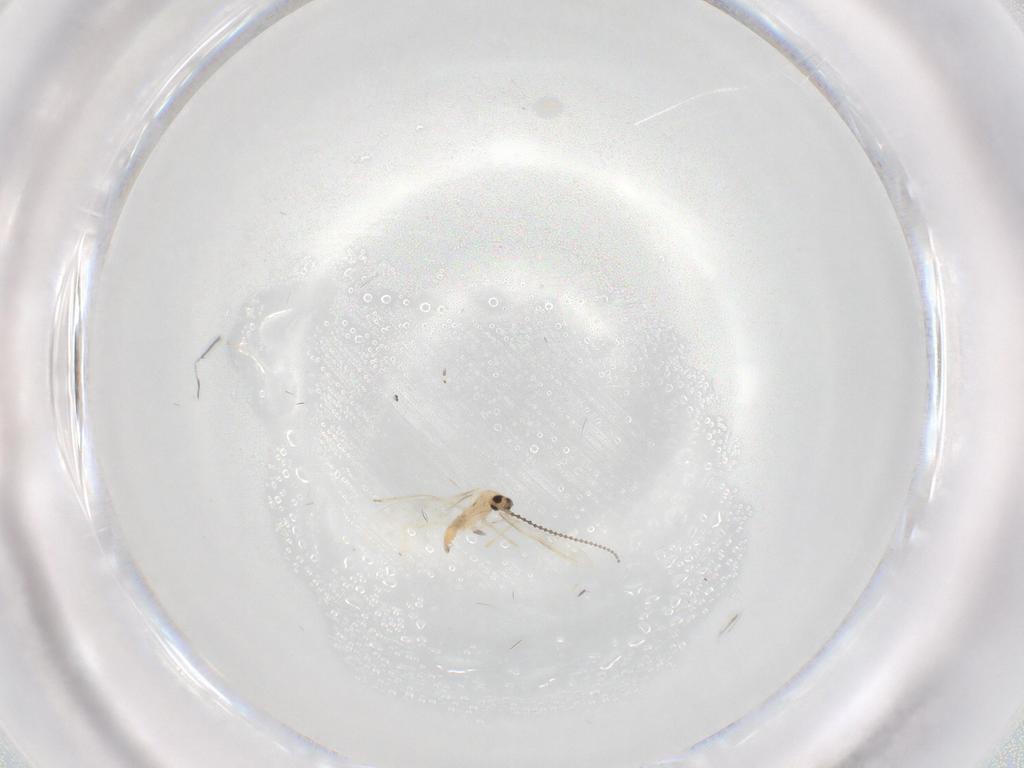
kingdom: Animalia
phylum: Arthropoda
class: Insecta
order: Diptera
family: Cecidomyiidae
